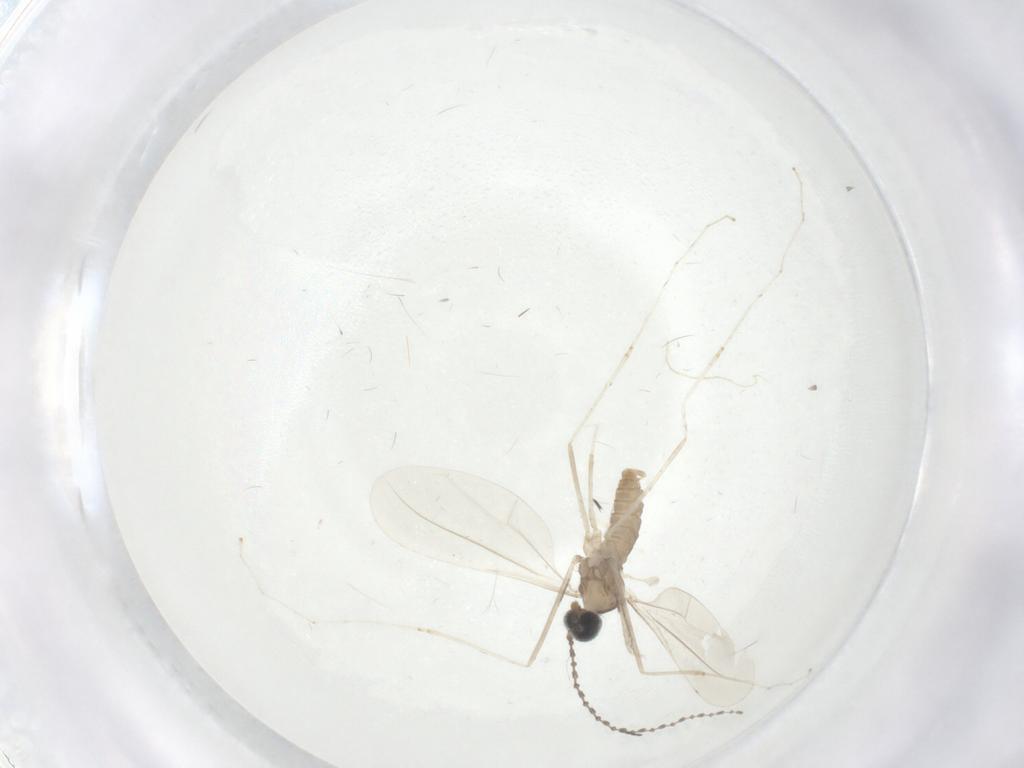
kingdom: Animalia
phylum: Arthropoda
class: Insecta
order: Diptera
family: Cecidomyiidae
